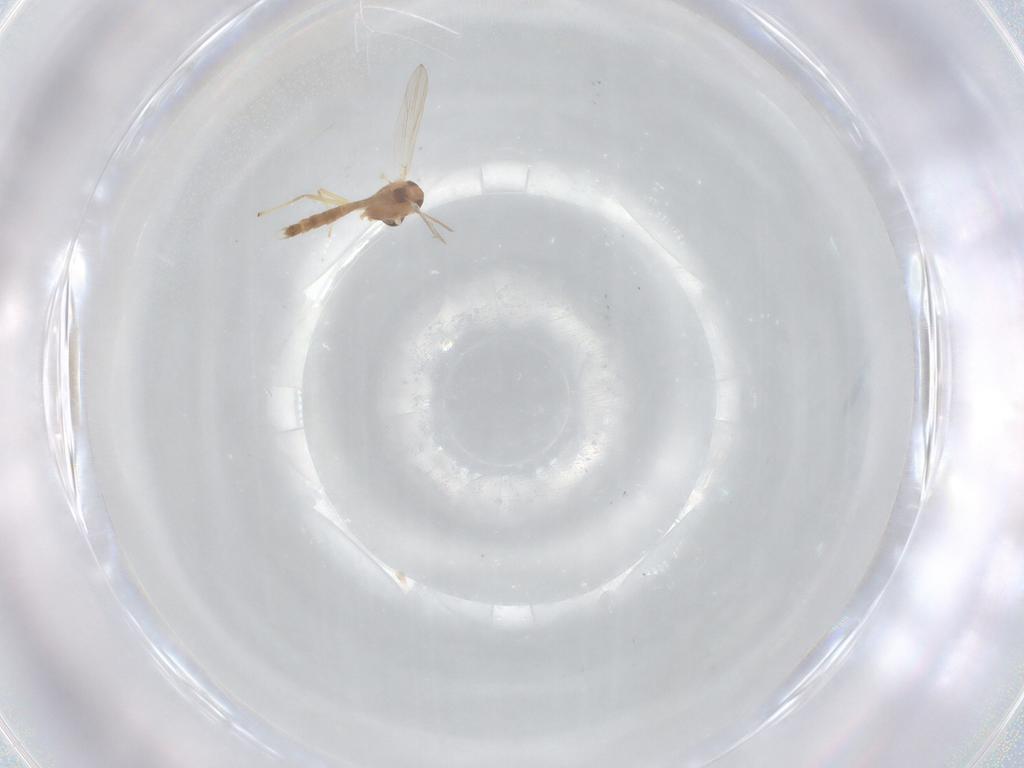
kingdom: Animalia
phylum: Arthropoda
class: Insecta
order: Diptera
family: Chironomidae
